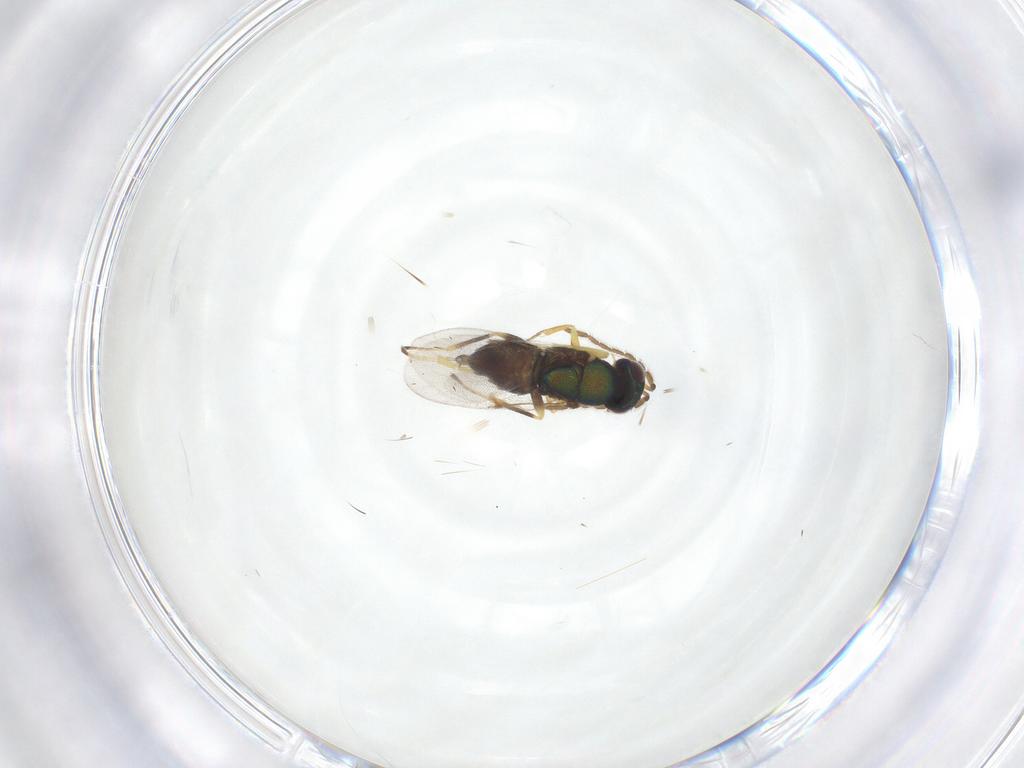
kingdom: Animalia
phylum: Arthropoda
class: Insecta
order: Hymenoptera
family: Encyrtidae
